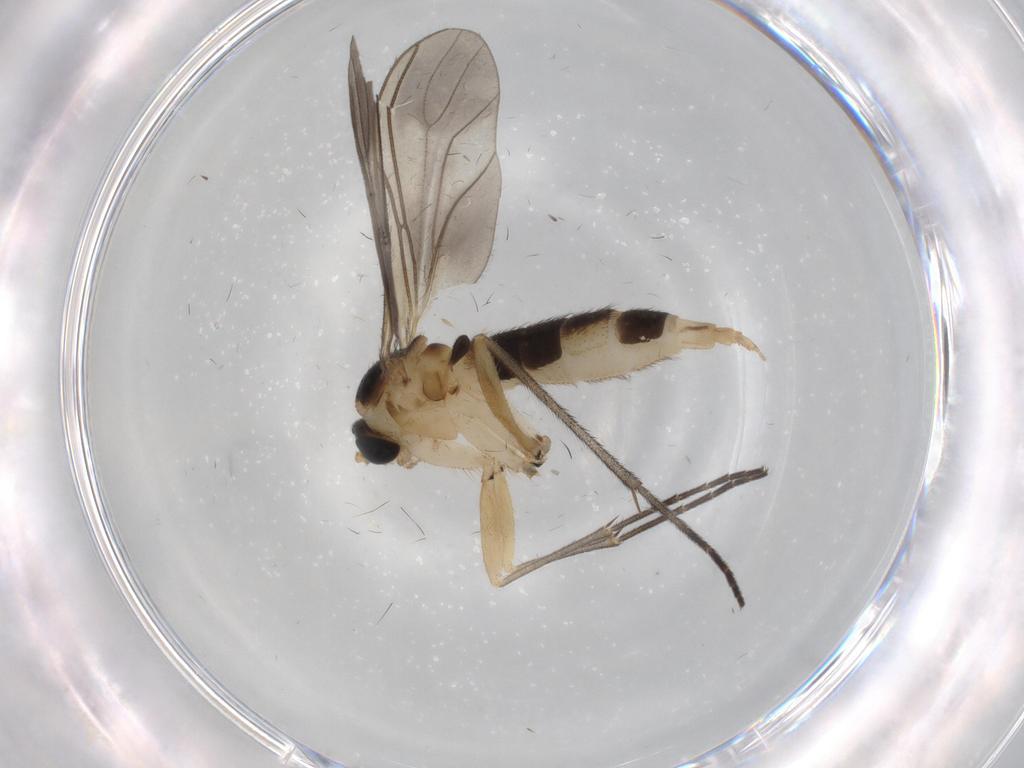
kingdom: Animalia
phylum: Arthropoda
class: Insecta
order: Diptera
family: Sciaridae
